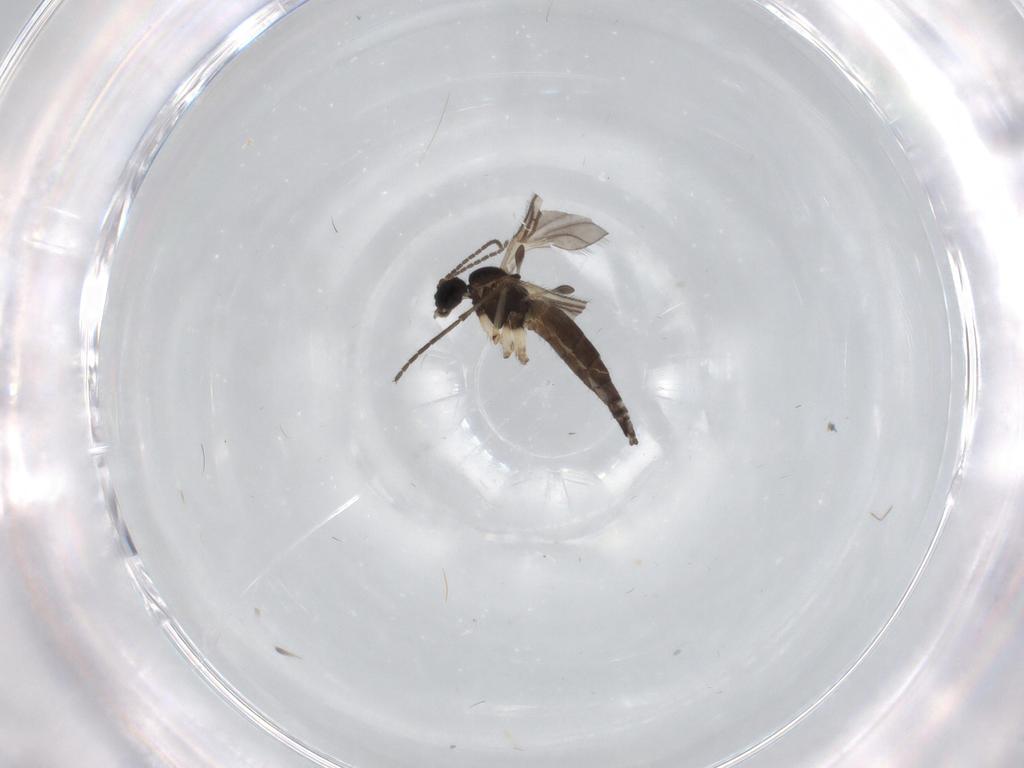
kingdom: Animalia
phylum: Arthropoda
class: Insecta
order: Diptera
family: Sciaridae
